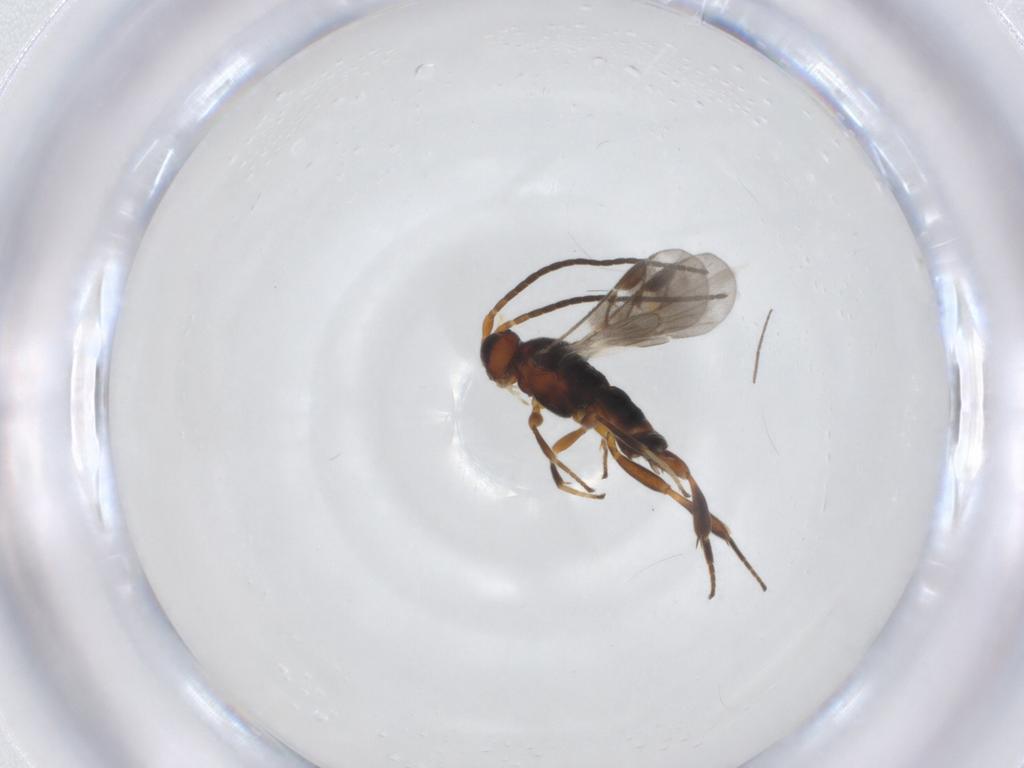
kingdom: Animalia
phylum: Arthropoda
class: Insecta
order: Hymenoptera
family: Braconidae
